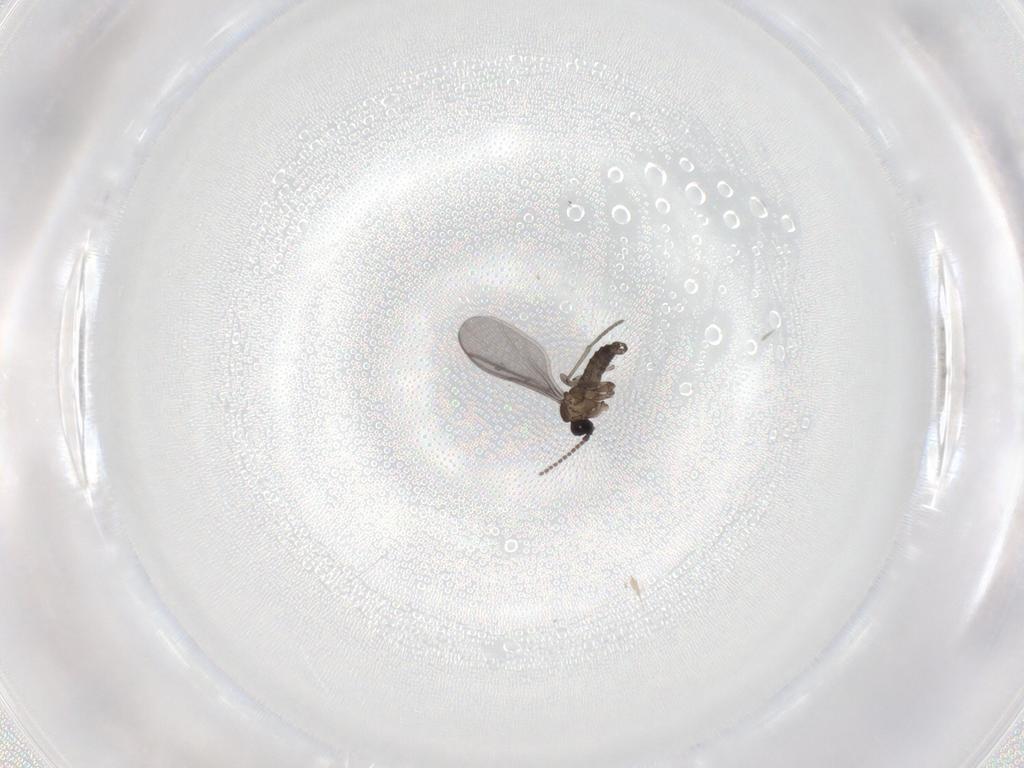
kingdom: Animalia
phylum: Arthropoda
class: Insecta
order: Diptera
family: Sciaridae
